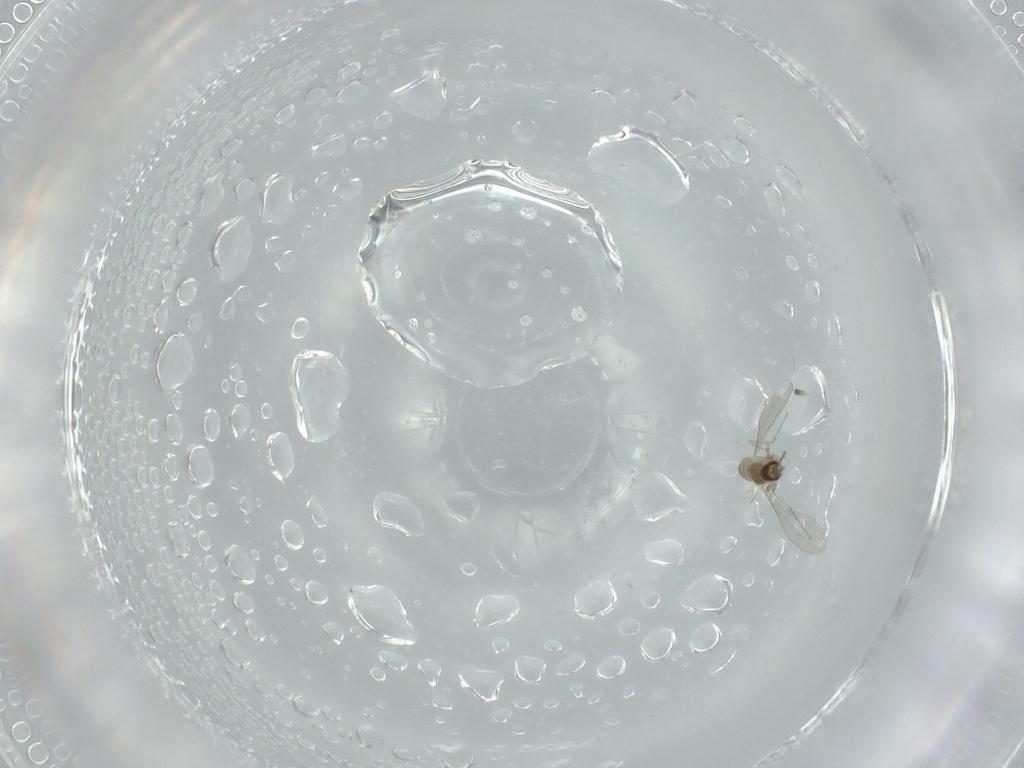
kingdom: Animalia
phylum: Arthropoda
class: Insecta
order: Diptera
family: Cecidomyiidae
